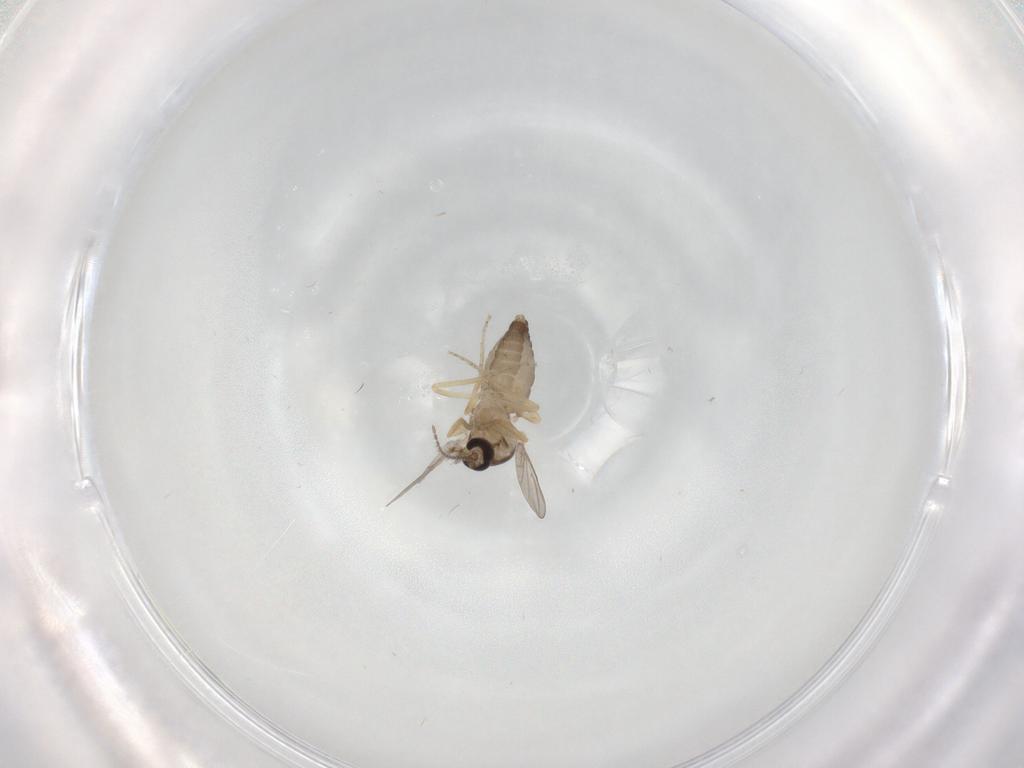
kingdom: Animalia
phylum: Arthropoda
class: Insecta
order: Diptera
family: Ceratopogonidae
